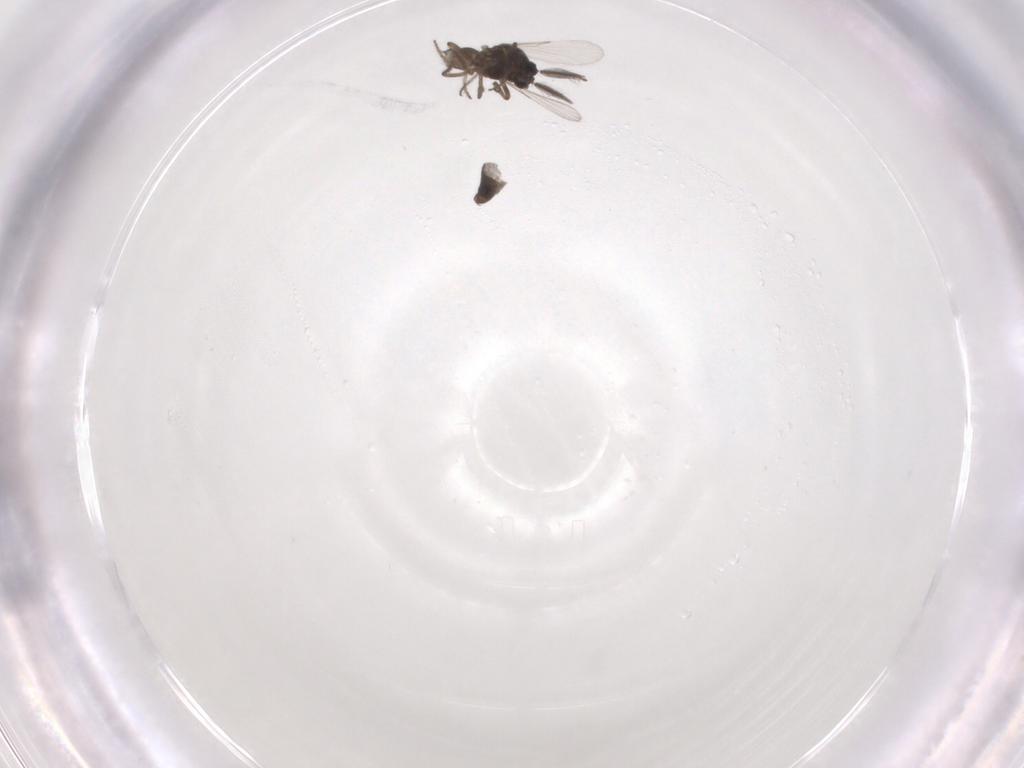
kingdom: Animalia
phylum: Arthropoda
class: Insecta
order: Diptera
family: Ceratopogonidae
